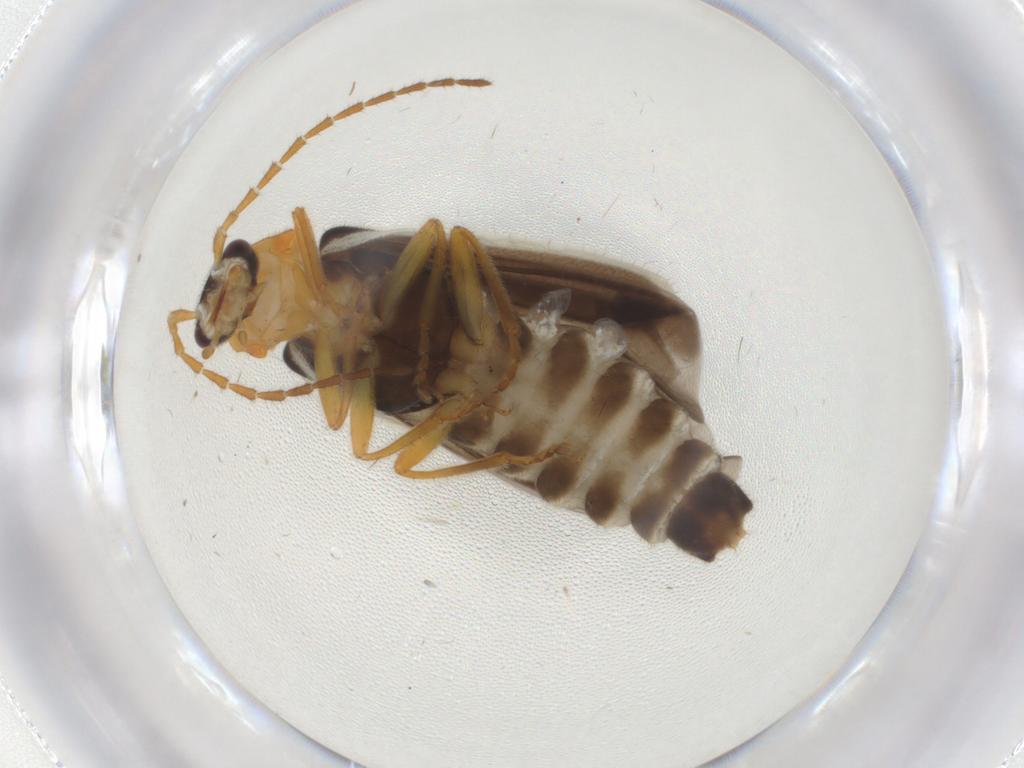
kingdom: Animalia
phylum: Arthropoda
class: Insecta
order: Coleoptera
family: Cantharidae
